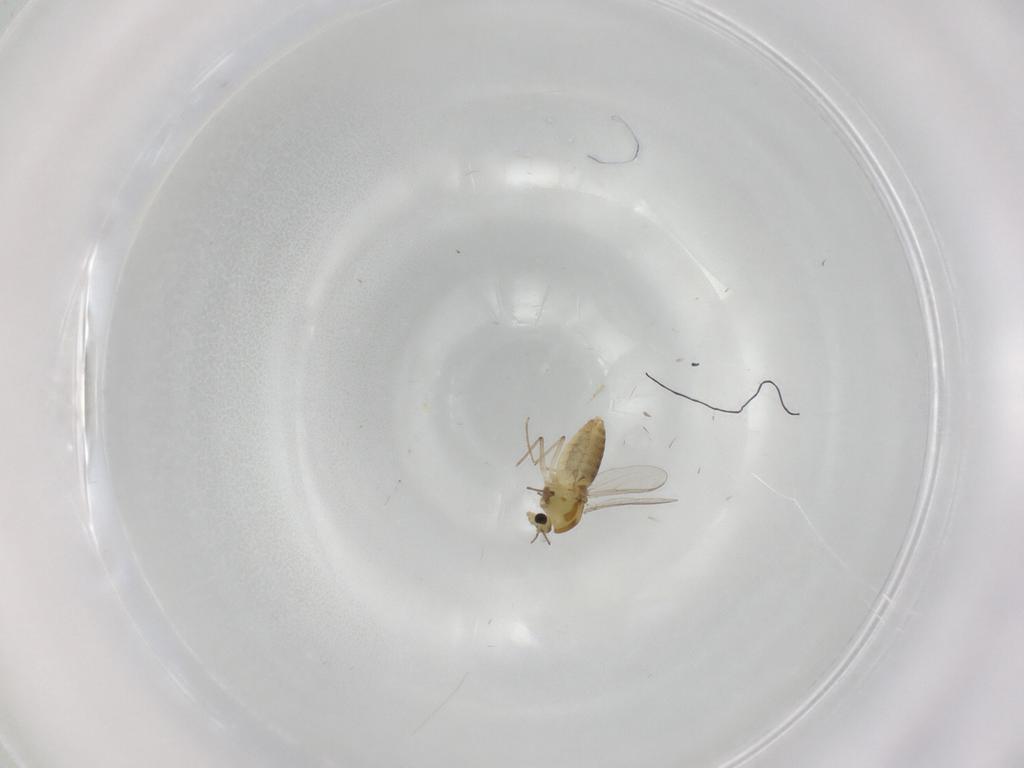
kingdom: Animalia
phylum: Arthropoda
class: Insecta
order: Diptera
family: Chironomidae
